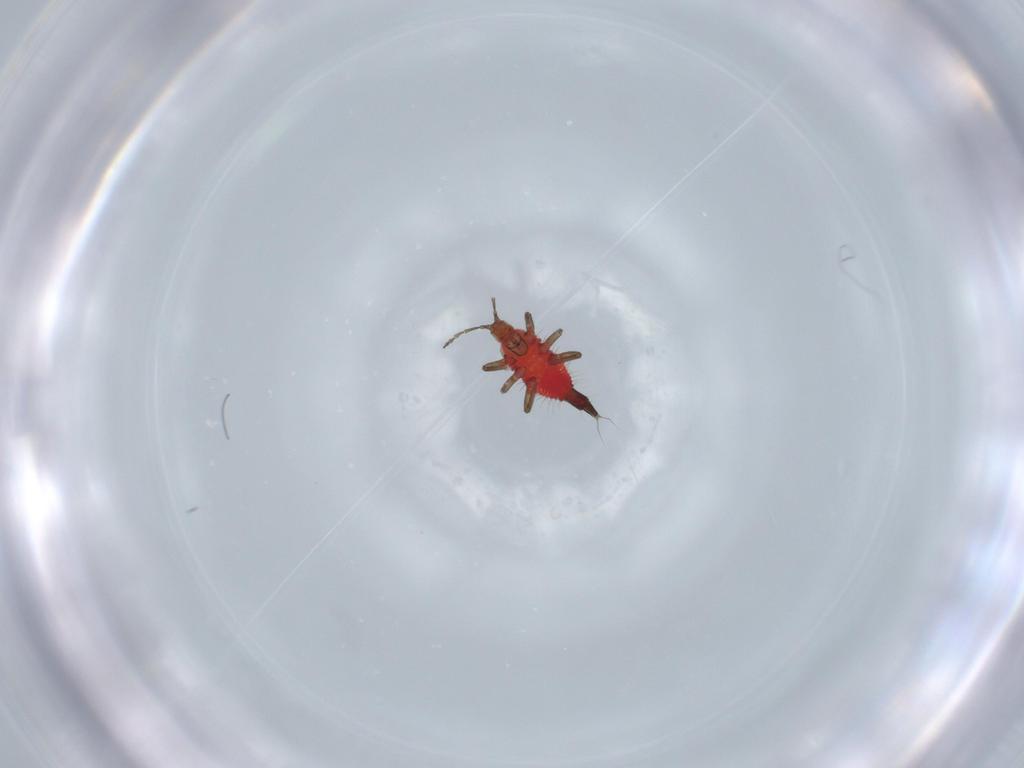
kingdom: Animalia
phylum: Arthropoda
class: Insecta
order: Thysanoptera
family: Phlaeothripidae
